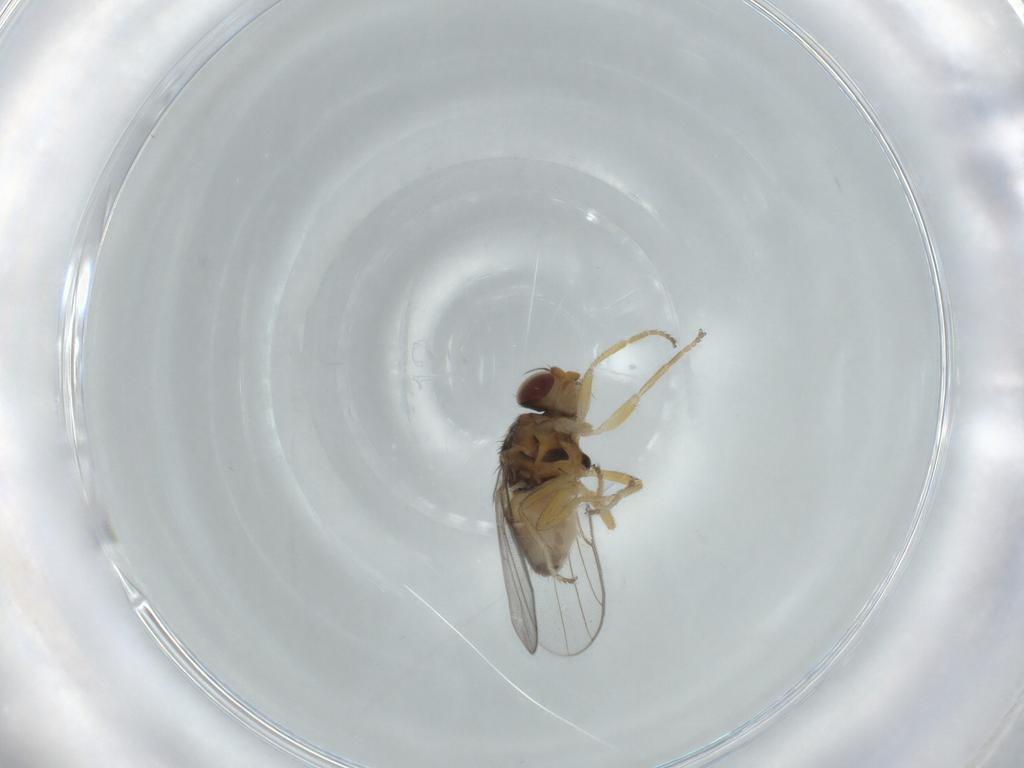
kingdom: Animalia
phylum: Arthropoda
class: Insecta
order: Diptera
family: Chloropidae
